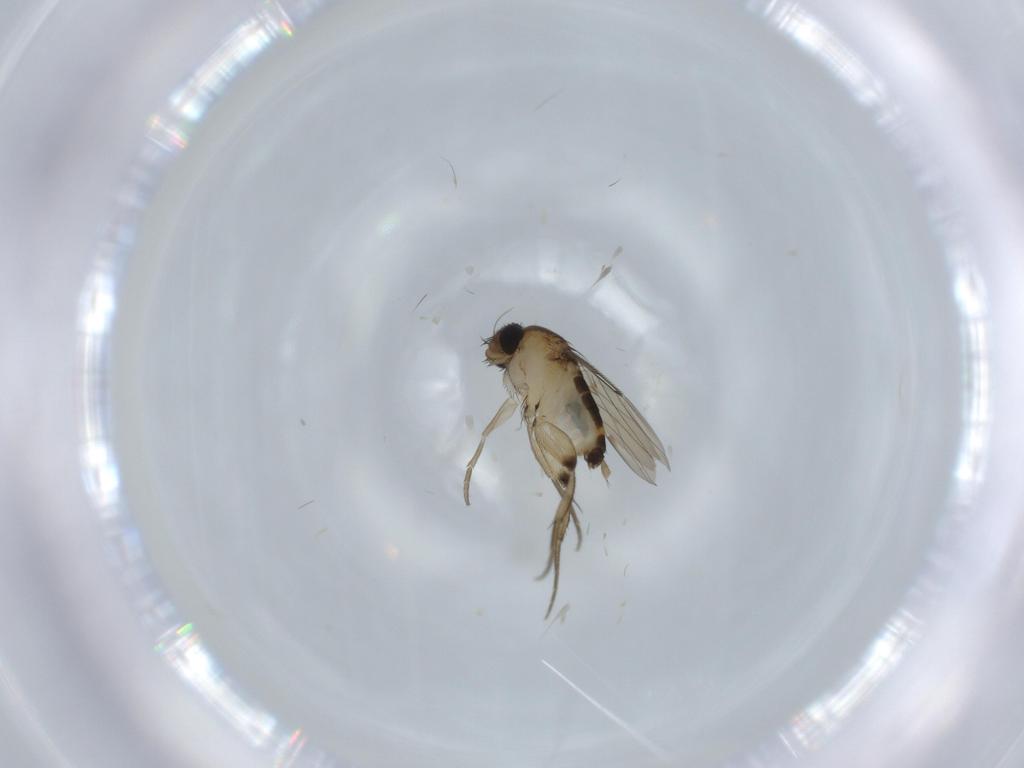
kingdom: Animalia
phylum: Arthropoda
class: Insecta
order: Diptera
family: Phoridae
